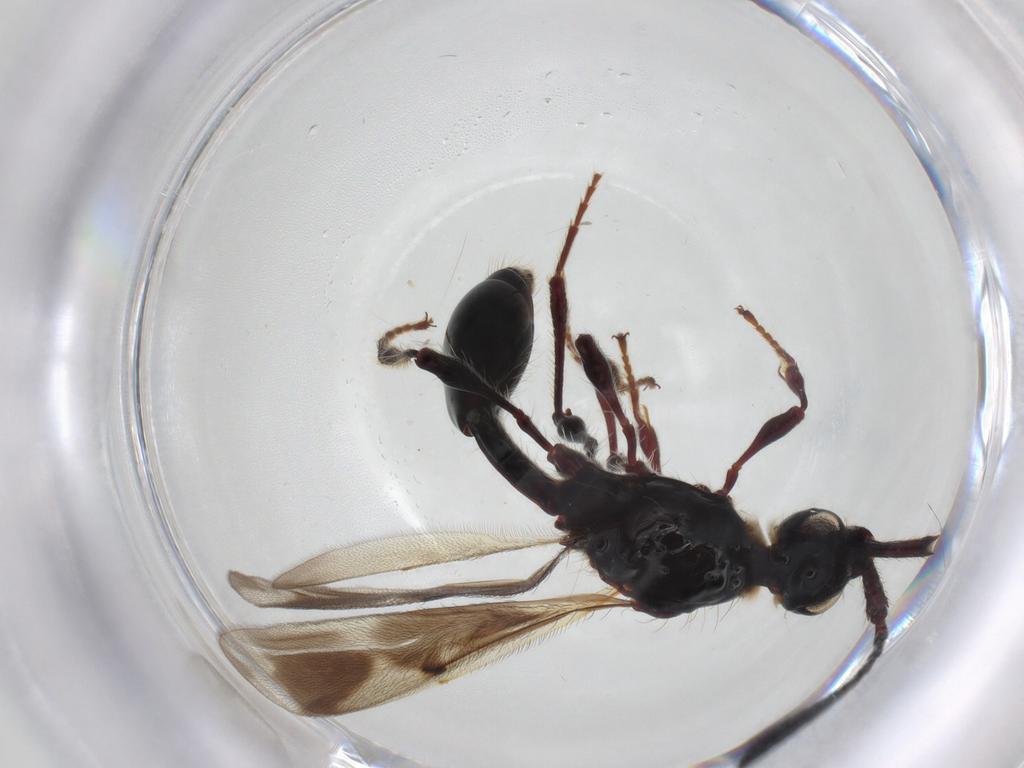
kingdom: Animalia
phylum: Arthropoda
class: Insecta
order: Hymenoptera
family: Diapriidae
